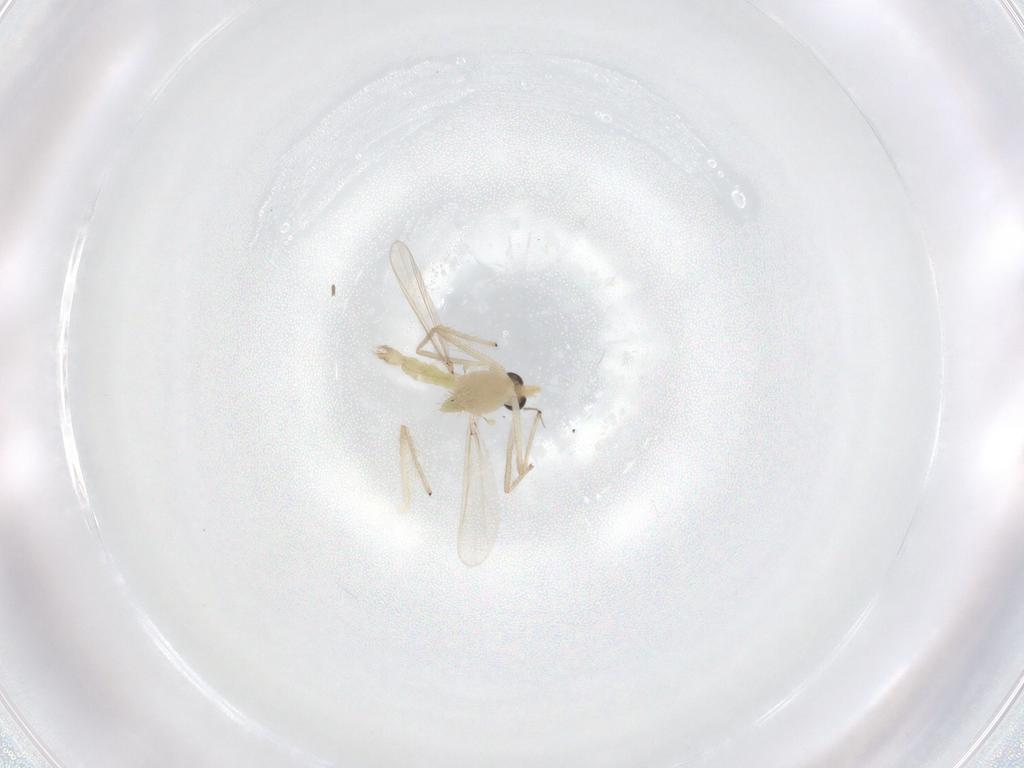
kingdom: Animalia
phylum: Arthropoda
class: Insecta
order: Diptera
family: Chironomidae
